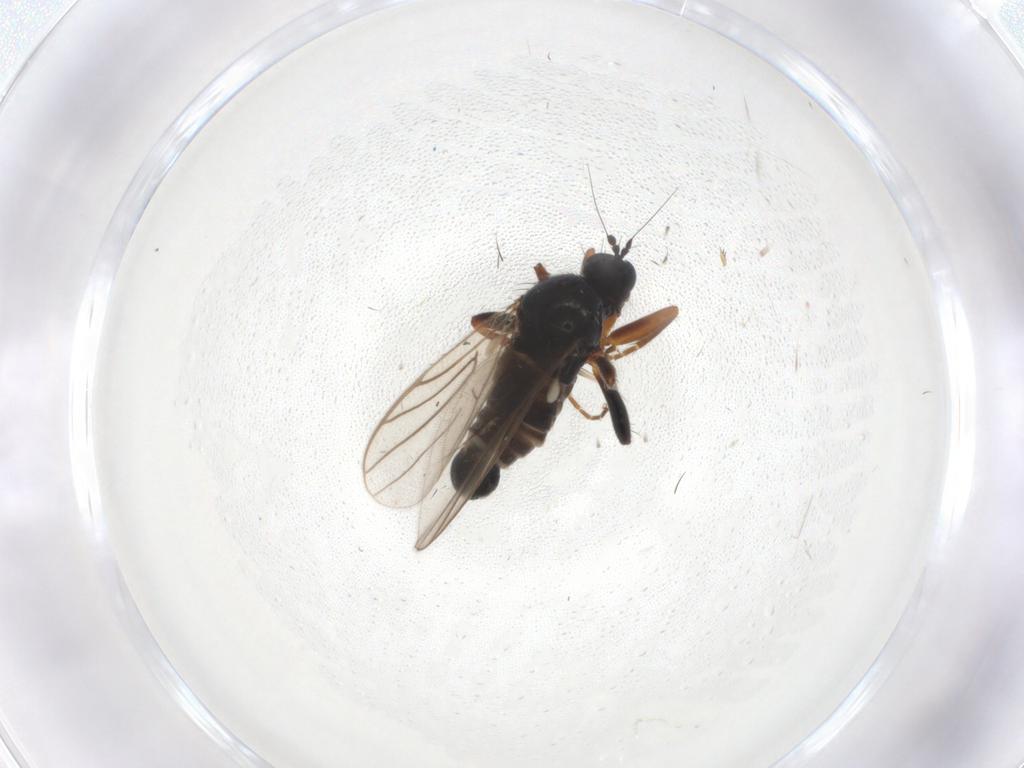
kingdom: Animalia
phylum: Arthropoda
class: Insecta
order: Diptera
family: Hybotidae
